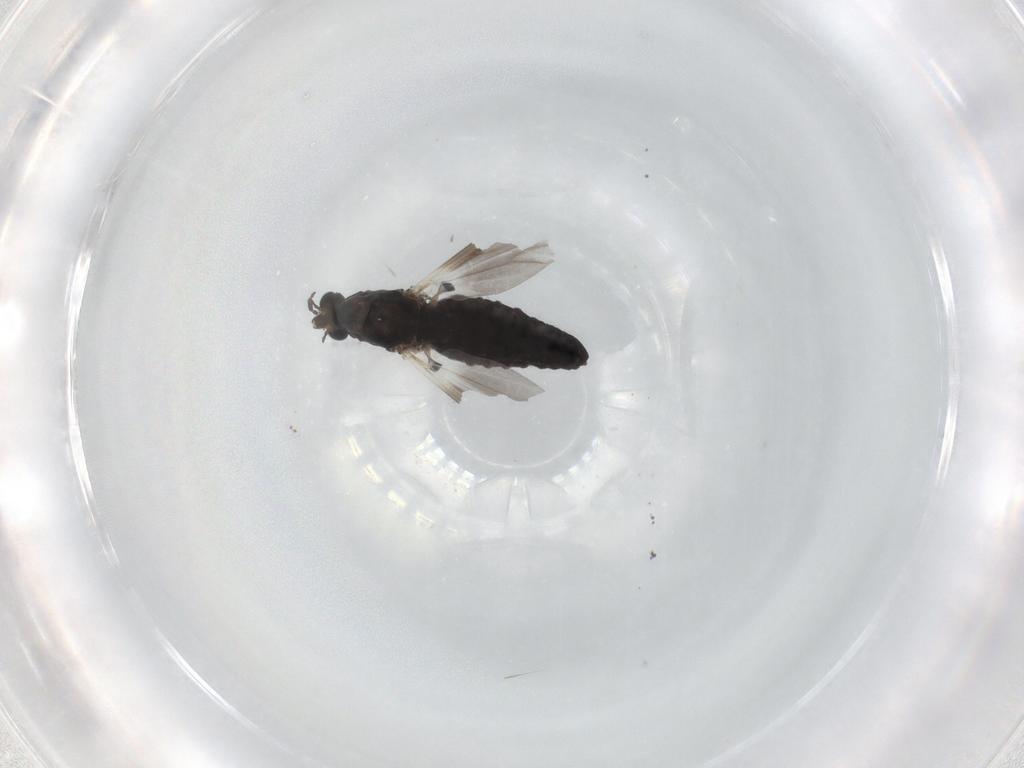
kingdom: Animalia
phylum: Arthropoda
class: Insecta
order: Diptera
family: Chironomidae
